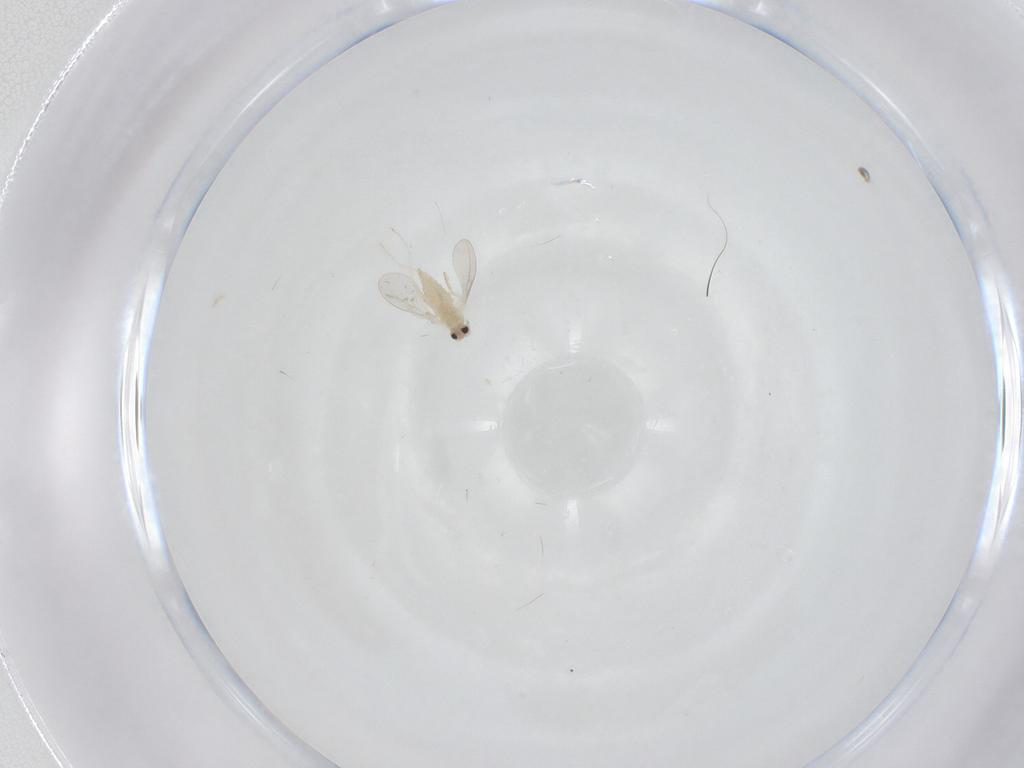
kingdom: Animalia
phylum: Arthropoda
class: Insecta
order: Diptera
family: Cecidomyiidae
